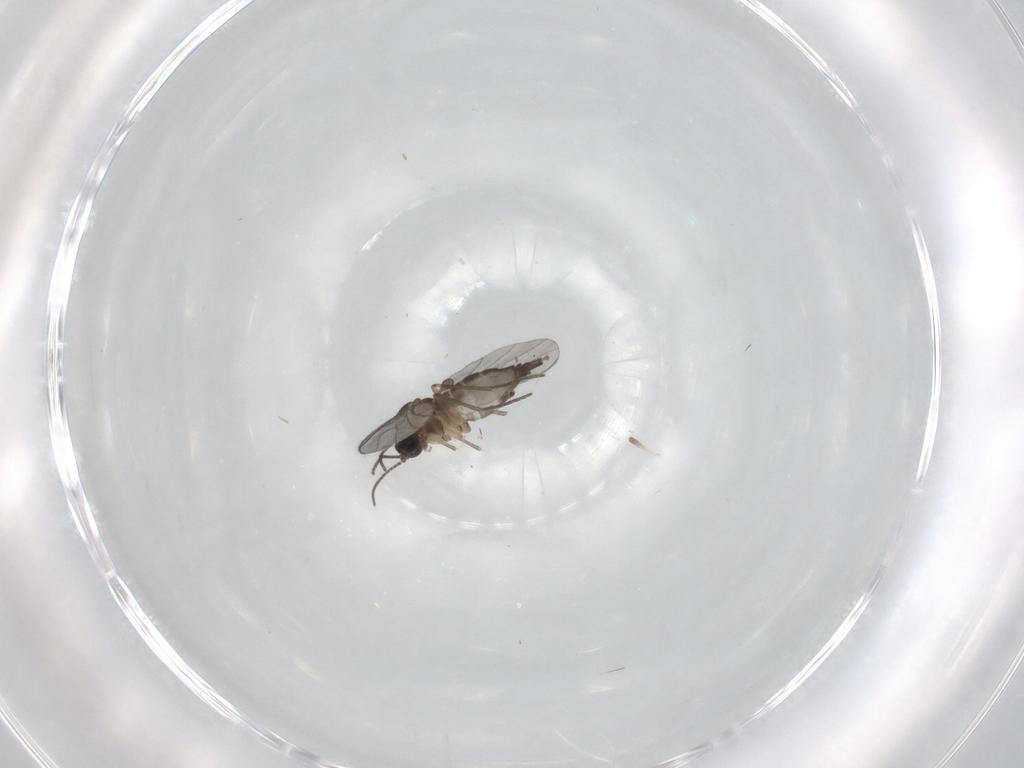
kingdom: Animalia
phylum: Arthropoda
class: Insecta
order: Diptera
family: Sciaridae
